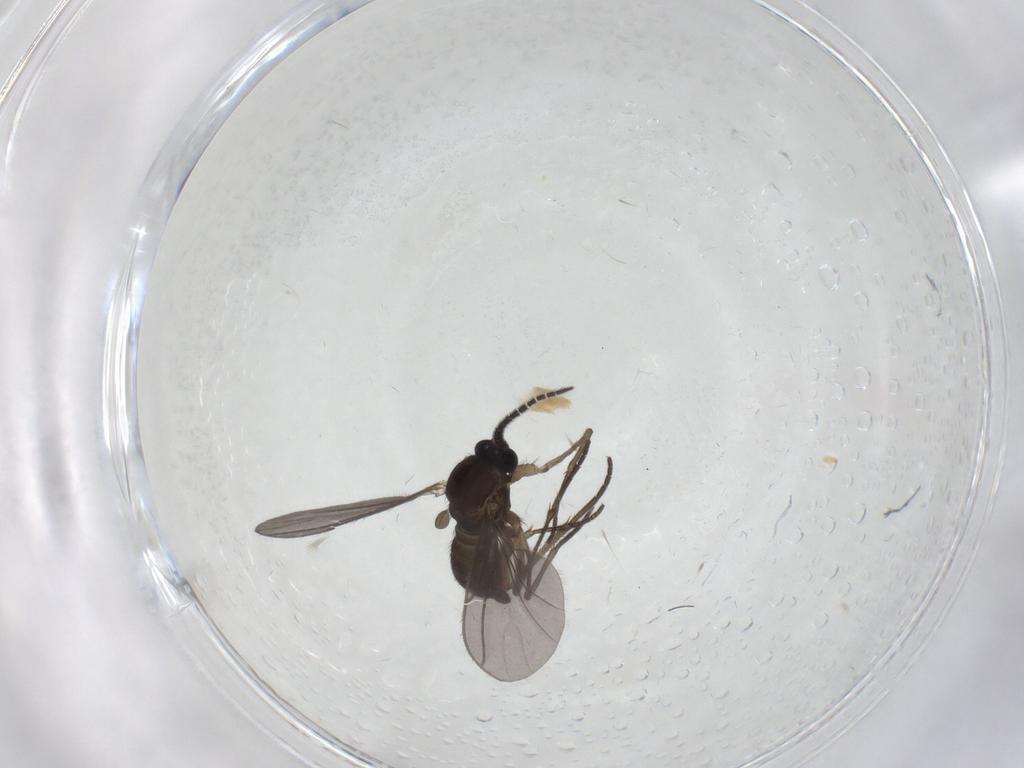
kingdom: Animalia
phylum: Arthropoda
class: Insecta
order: Diptera
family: Sciaridae
